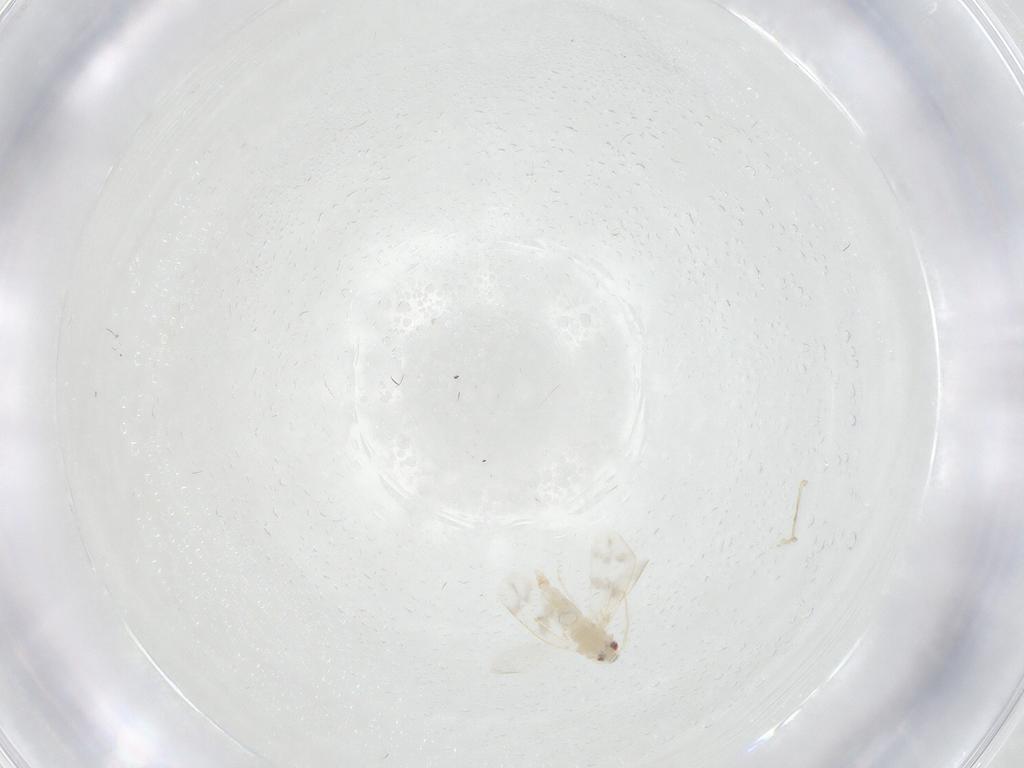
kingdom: Animalia
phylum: Arthropoda
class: Insecta
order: Hemiptera
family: Aleyrodidae
